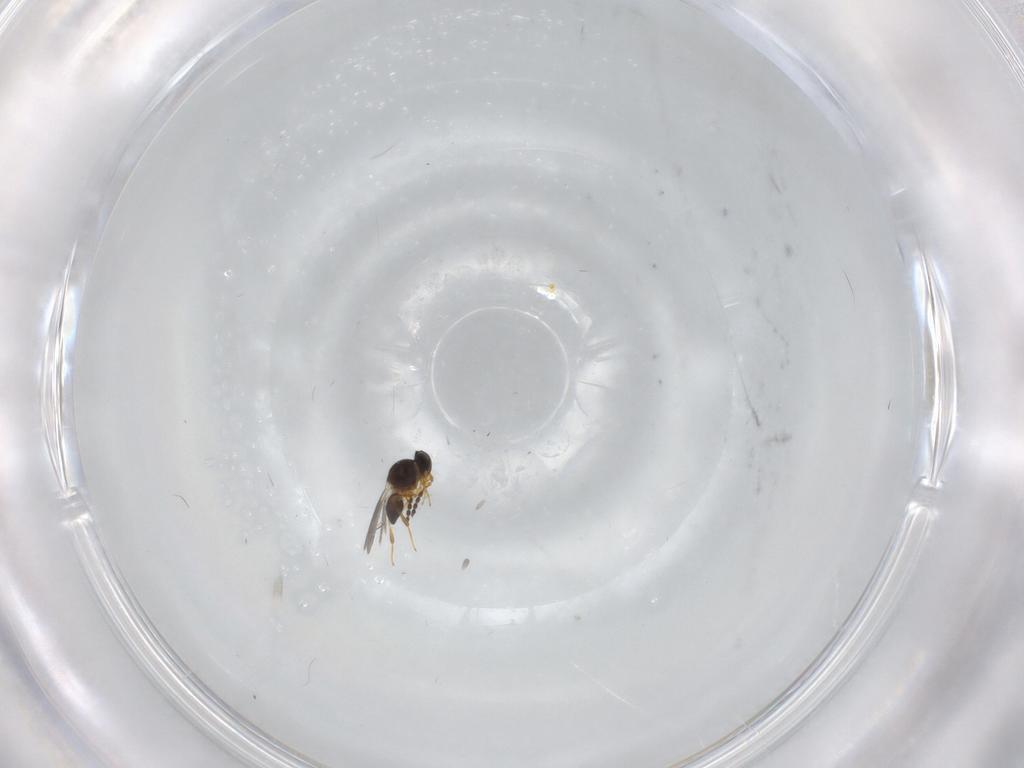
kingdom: Animalia
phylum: Arthropoda
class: Insecta
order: Hymenoptera
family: Platygastridae
